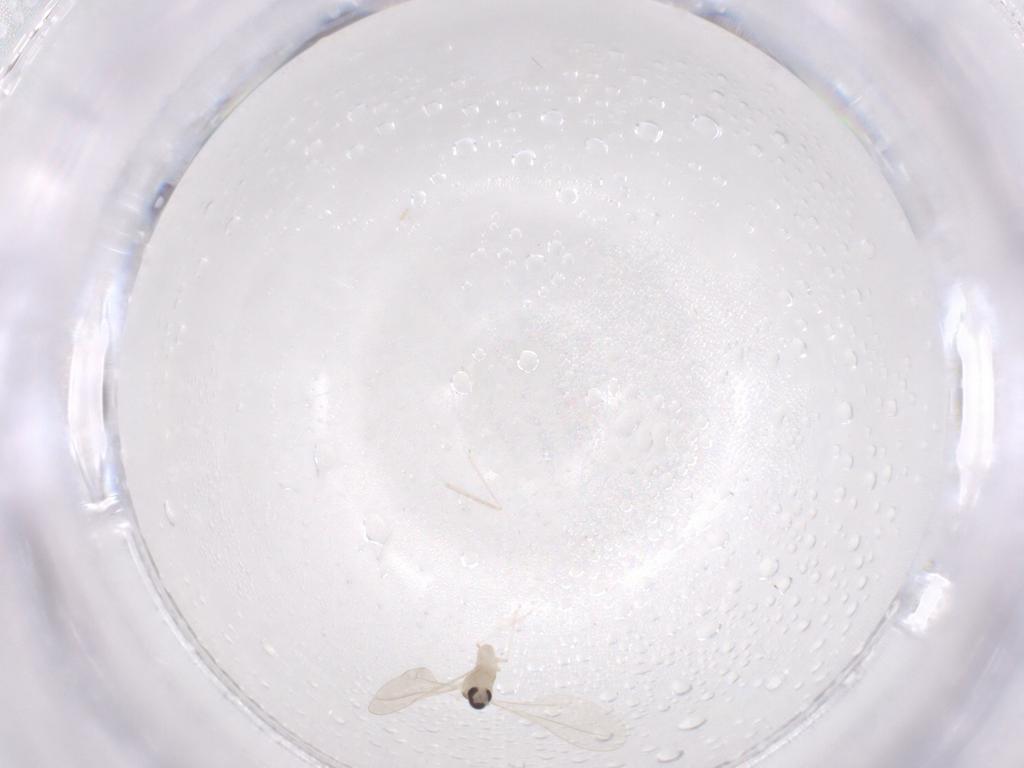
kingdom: Animalia
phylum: Arthropoda
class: Insecta
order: Diptera
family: Cecidomyiidae
